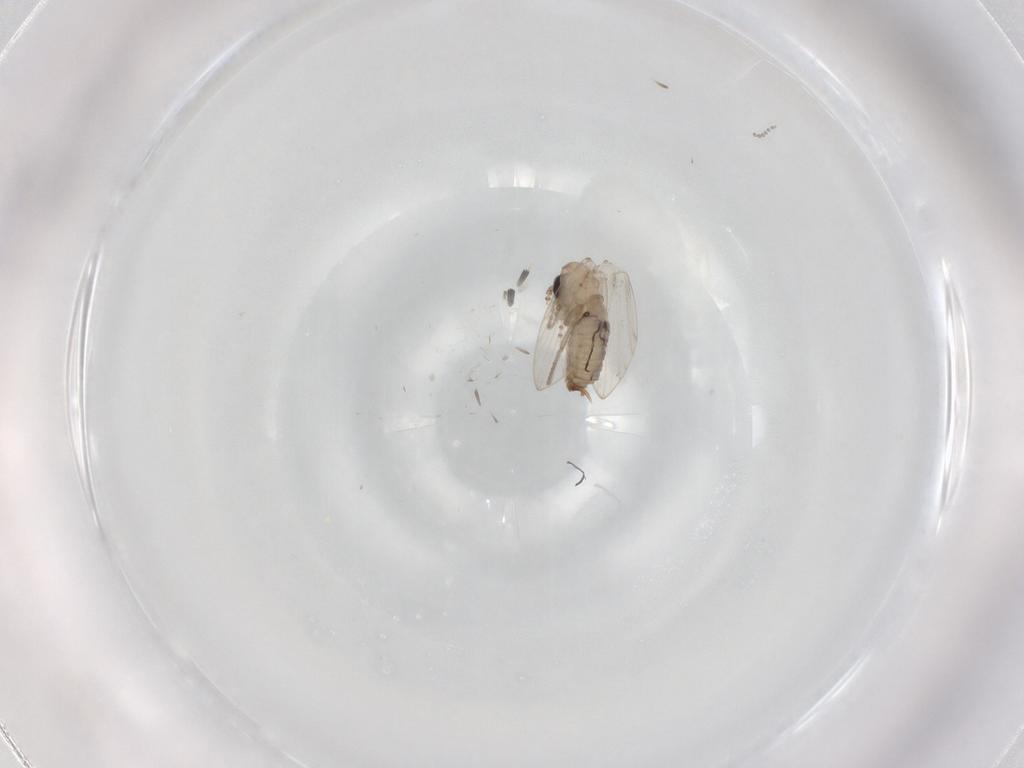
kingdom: Animalia
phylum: Arthropoda
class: Insecta
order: Diptera
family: Psychodidae
